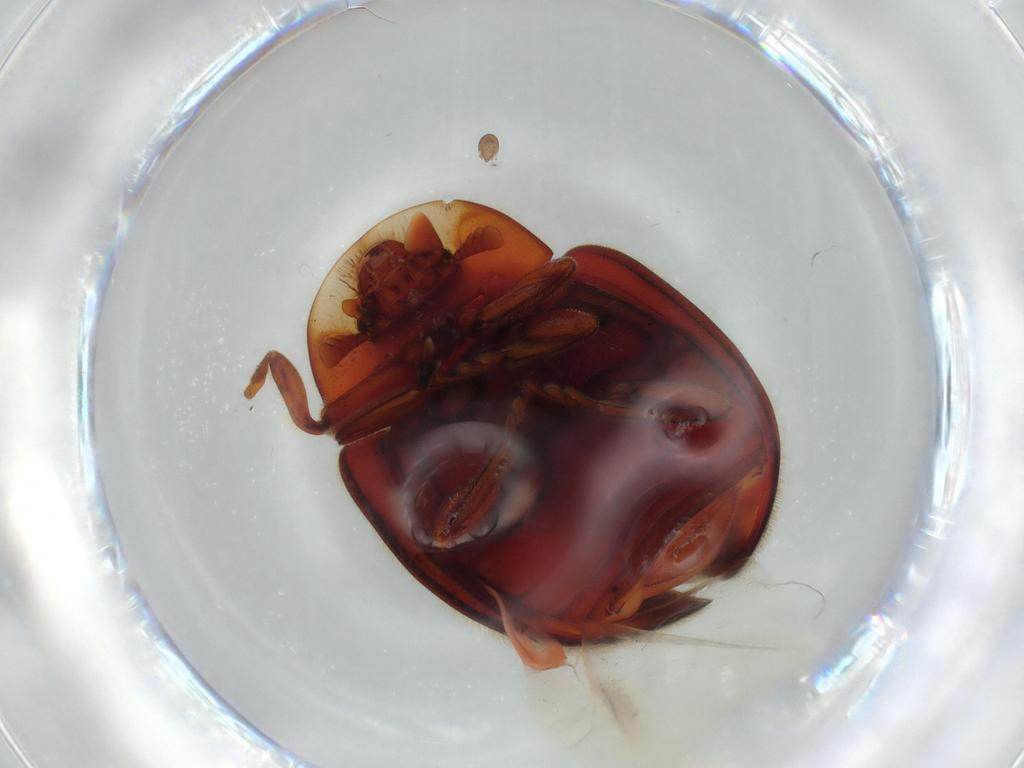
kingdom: Animalia
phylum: Arthropoda
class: Insecta
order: Coleoptera
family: Coccinellidae
